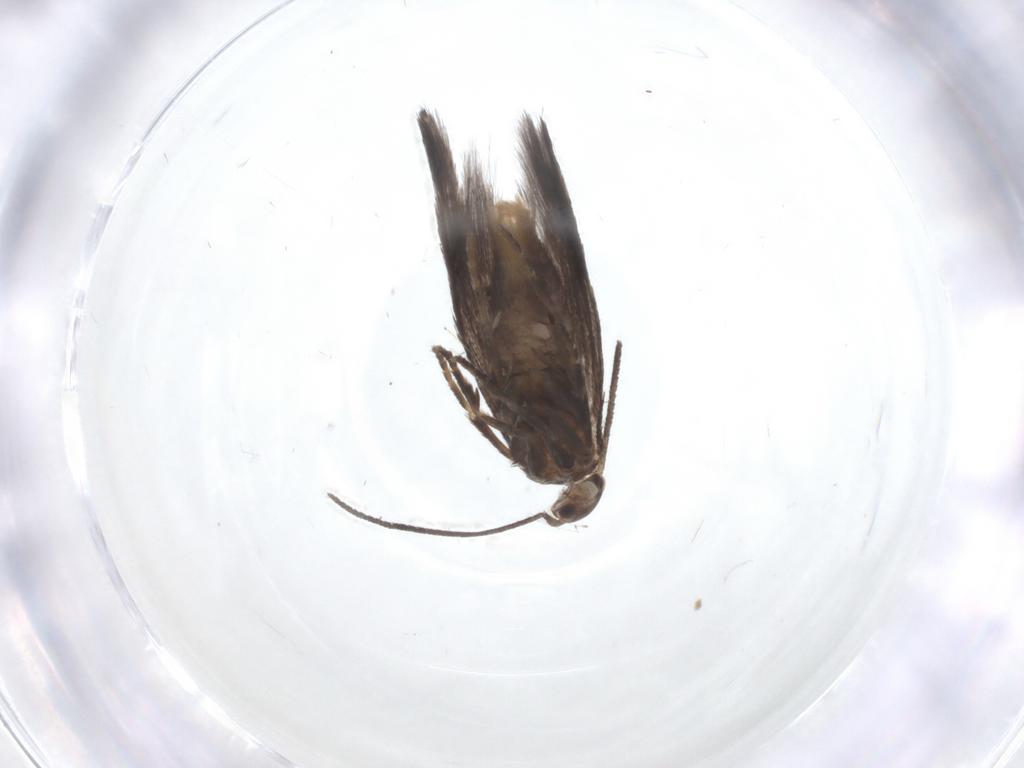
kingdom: Animalia
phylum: Arthropoda
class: Insecta
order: Lepidoptera
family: Elachistidae
